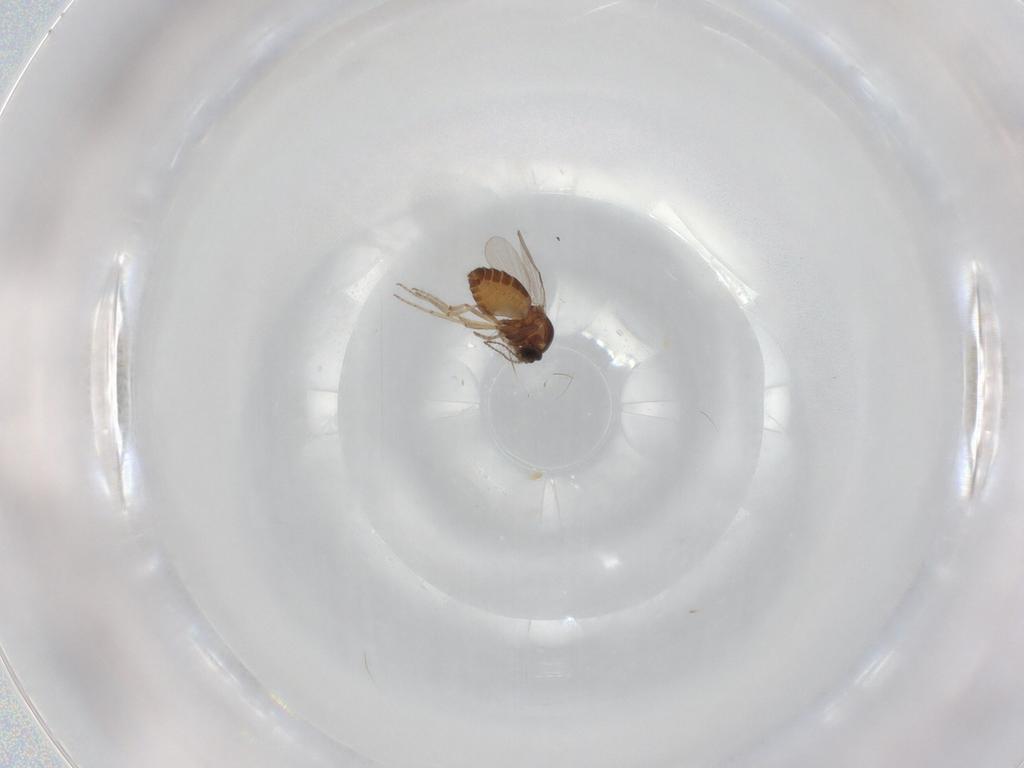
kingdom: Animalia
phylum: Arthropoda
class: Insecta
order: Diptera
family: Ceratopogonidae
